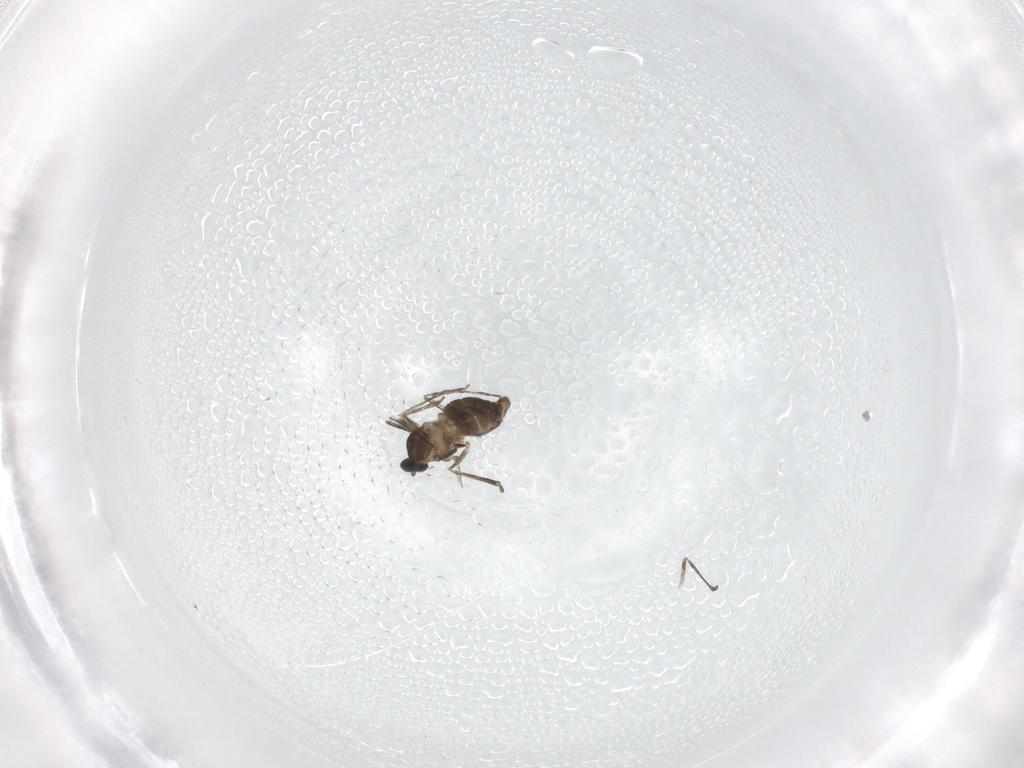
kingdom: Animalia
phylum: Arthropoda
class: Insecta
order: Diptera
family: Cecidomyiidae
